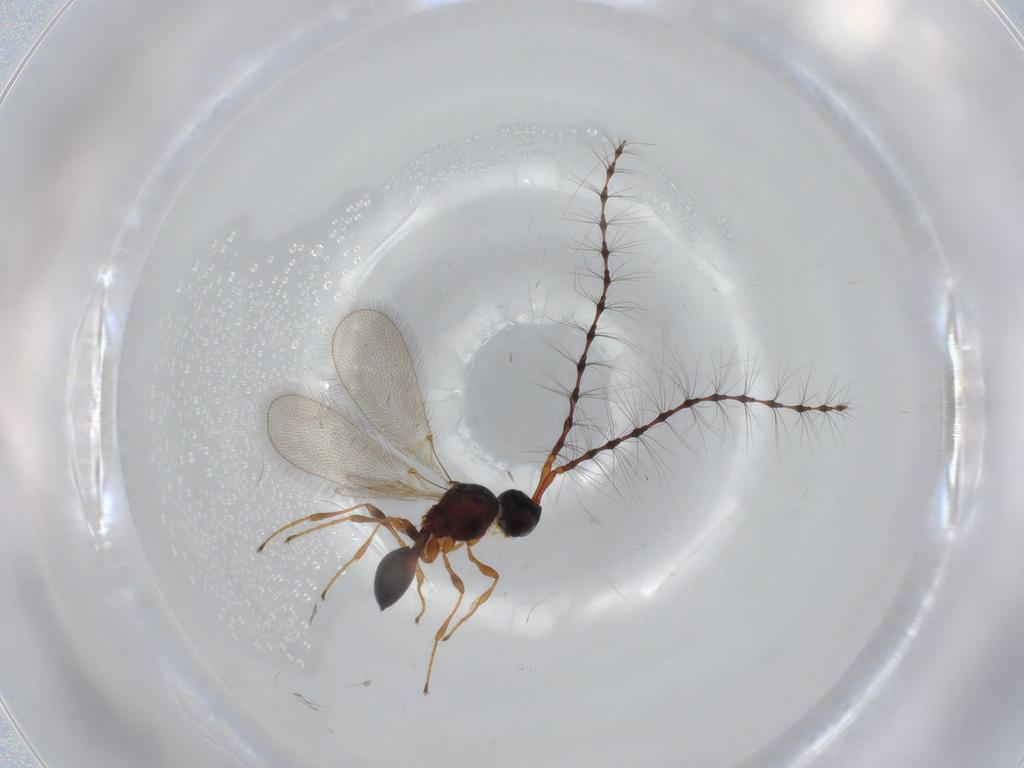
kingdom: Animalia
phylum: Arthropoda
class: Insecta
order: Hymenoptera
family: Diapriidae
